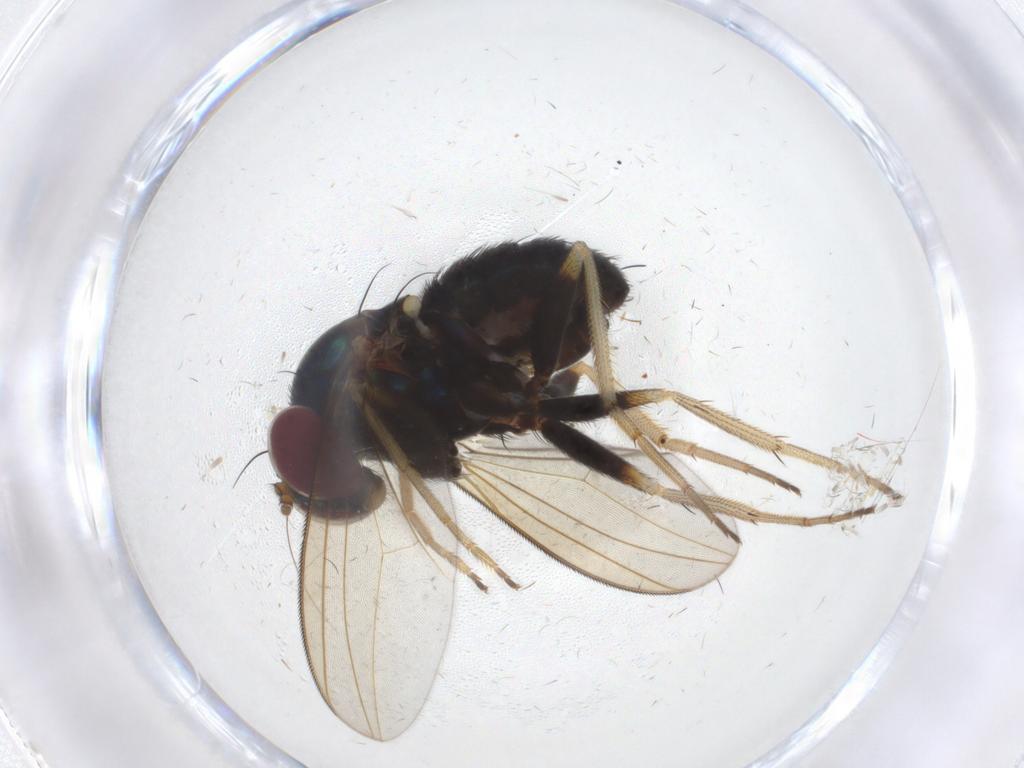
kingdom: Animalia
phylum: Arthropoda
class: Insecta
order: Diptera
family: Dolichopodidae
